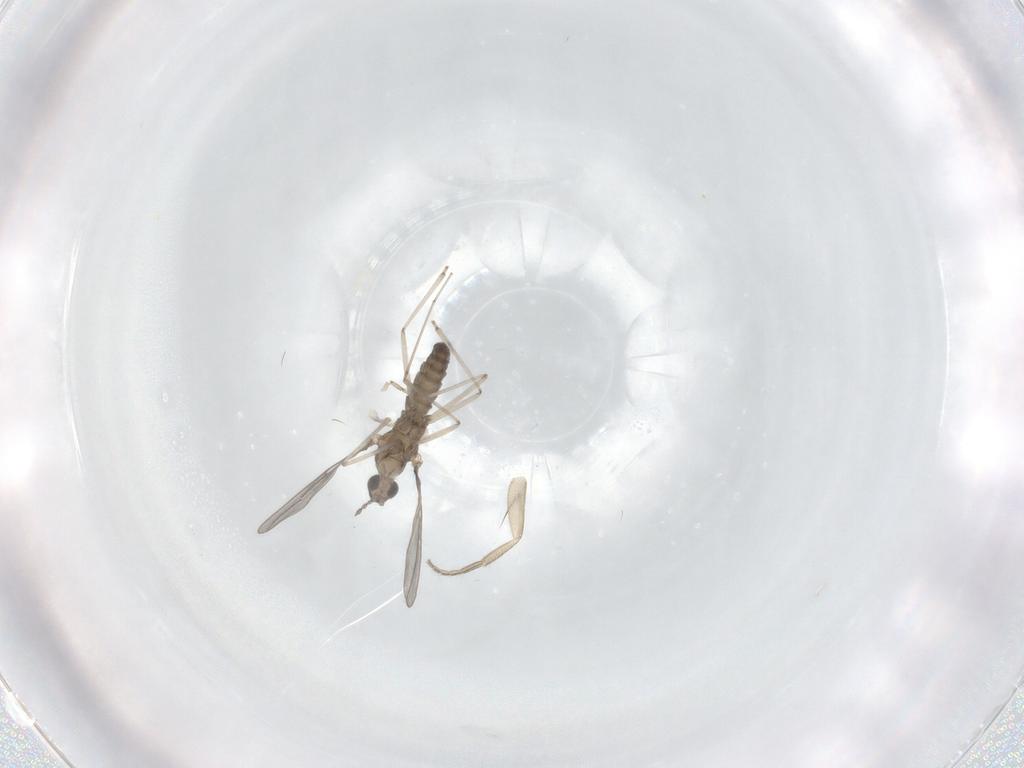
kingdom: Animalia
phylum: Arthropoda
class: Insecta
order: Diptera
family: Cecidomyiidae
